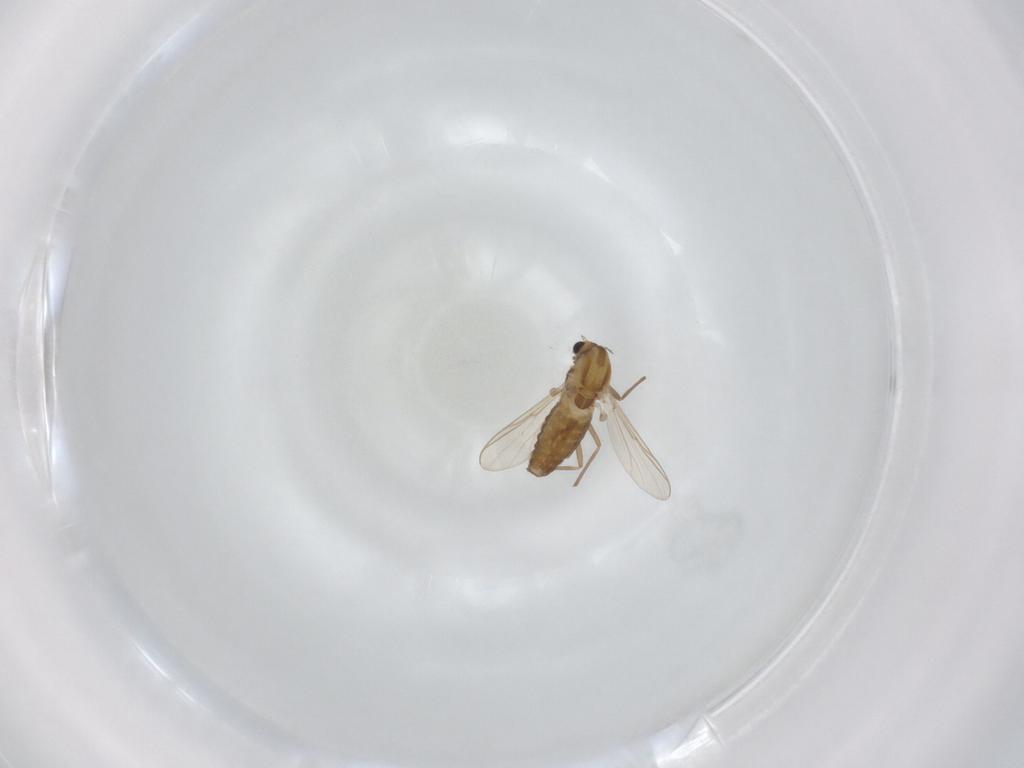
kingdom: Animalia
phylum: Arthropoda
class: Insecta
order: Diptera
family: Chironomidae
